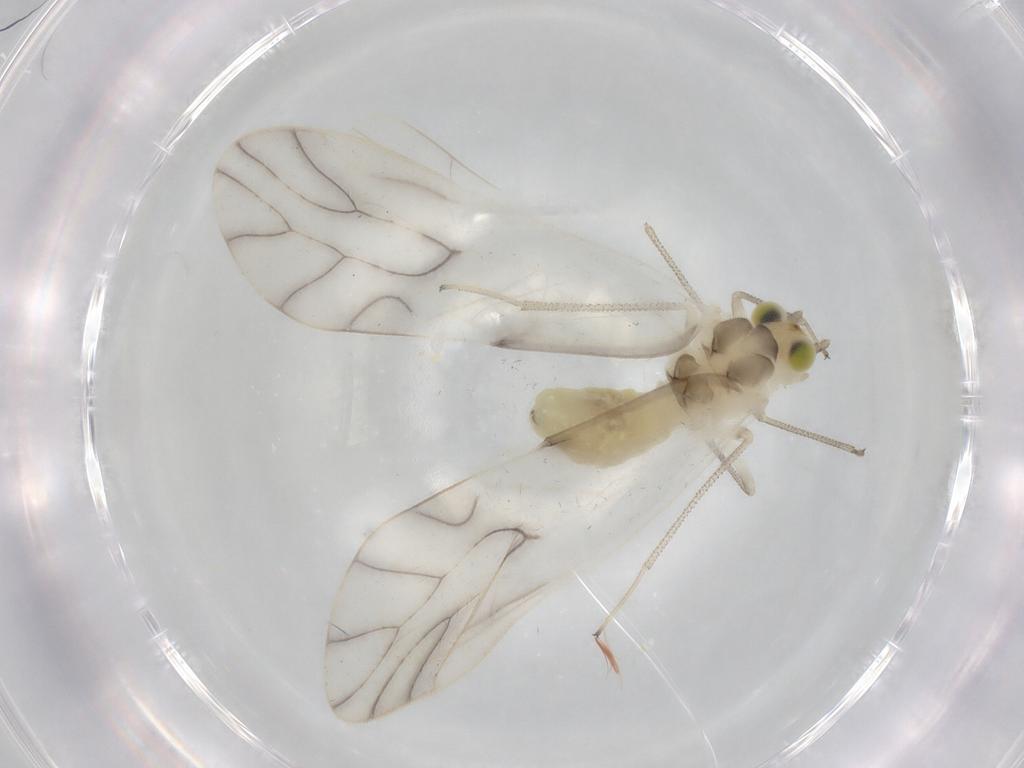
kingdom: Animalia
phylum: Arthropoda
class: Insecta
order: Psocodea
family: Caeciliusidae
